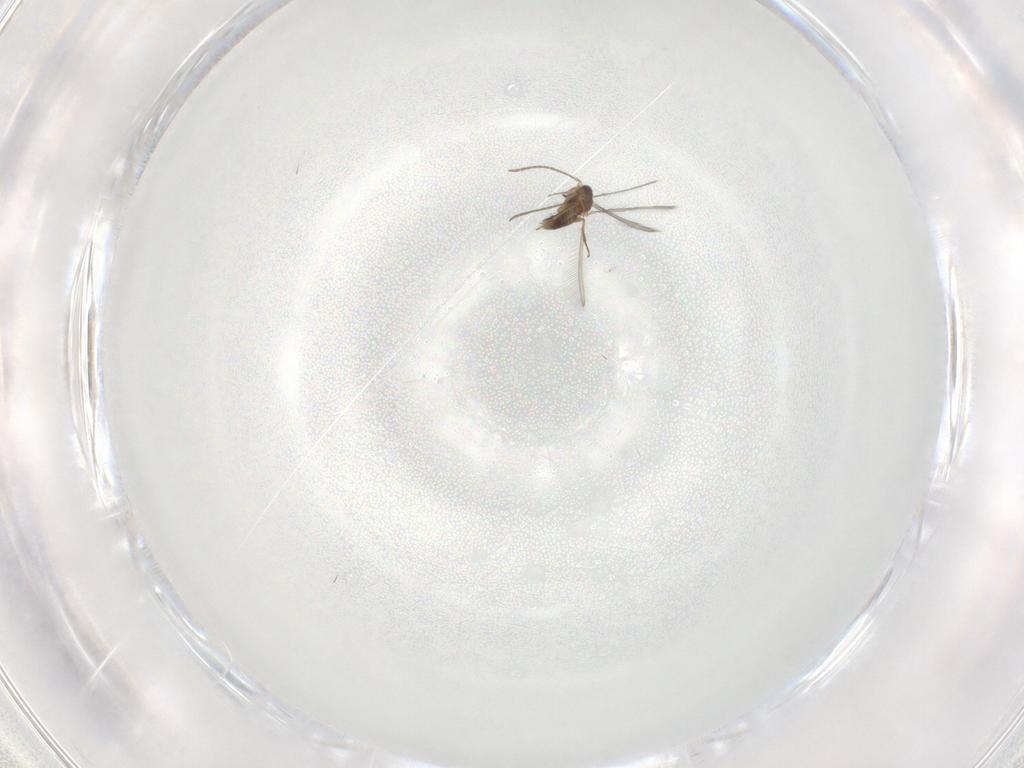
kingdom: Animalia
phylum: Arthropoda
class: Insecta
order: Hymenoptera
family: Mymaridae
